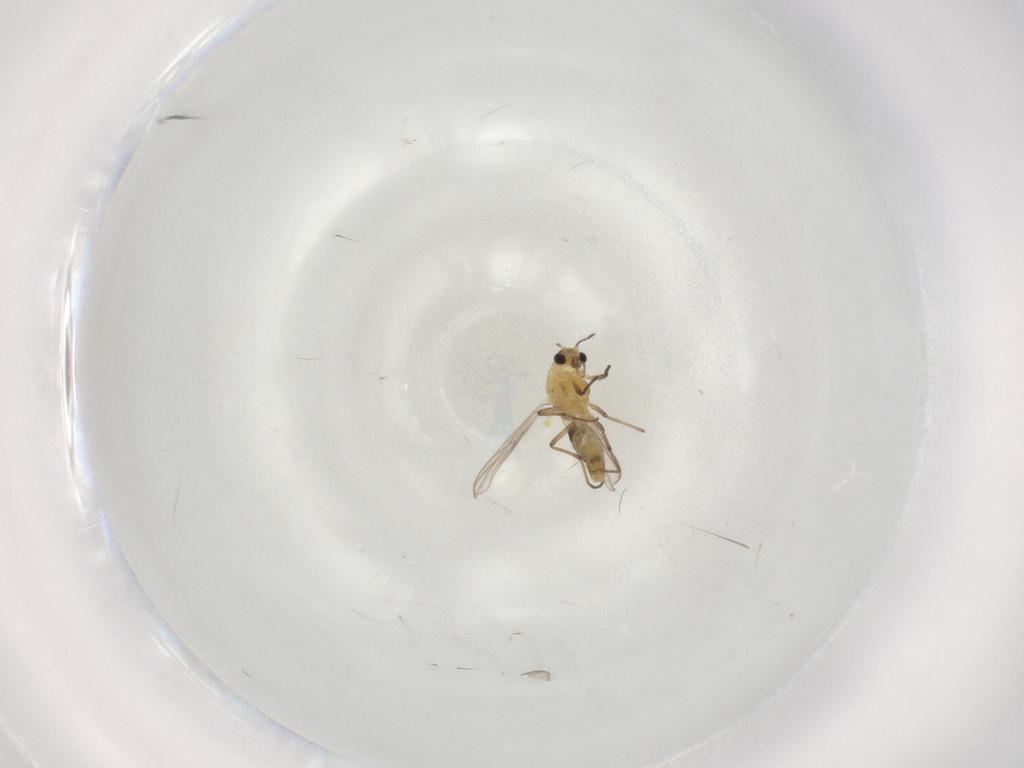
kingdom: Animalia
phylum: Arthropoda
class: Insecta
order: Diptera
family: Chironomidae
